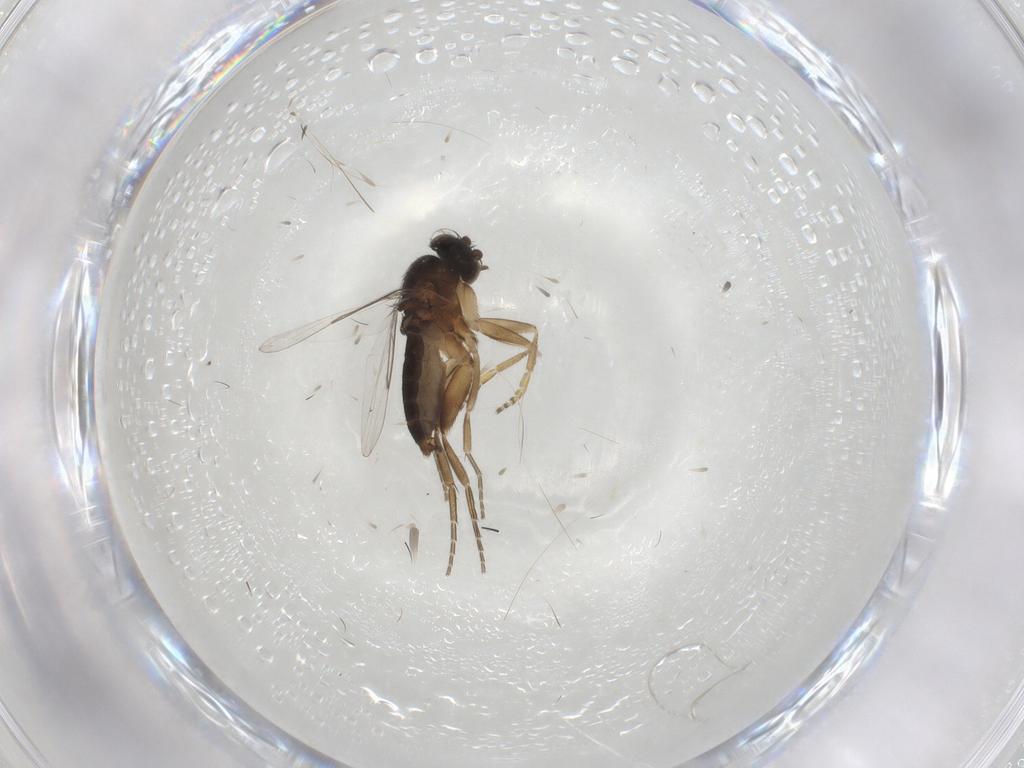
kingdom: Animalia
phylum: Arthropoda
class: Insecta
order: Diptera
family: Phoridae
